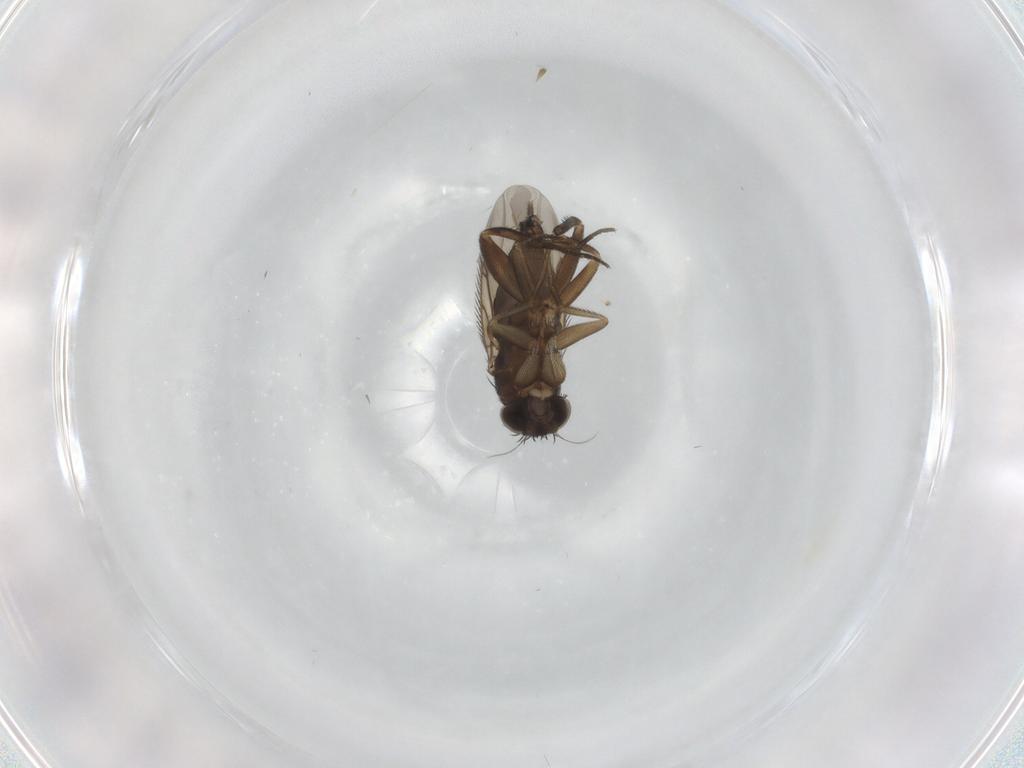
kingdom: Animalia
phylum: Arthropoda
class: Insecta
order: Diptera
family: Phoridae
